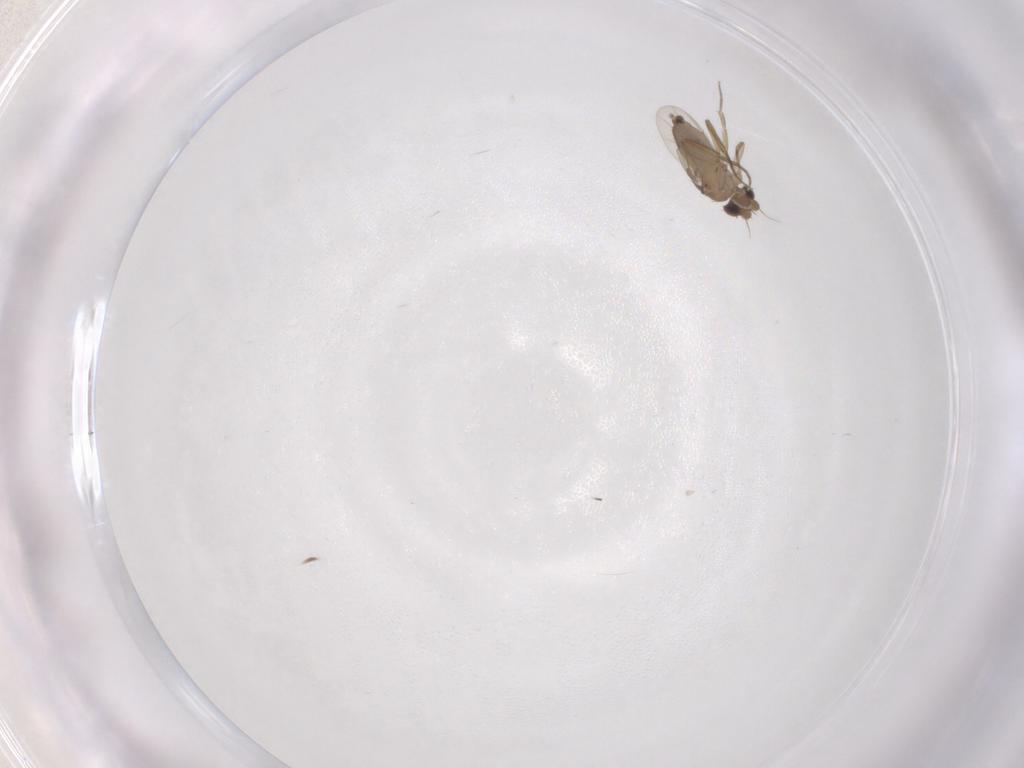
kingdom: Animalia
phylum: Arthropoda
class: Insecta
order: Diptera
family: Phoridae
